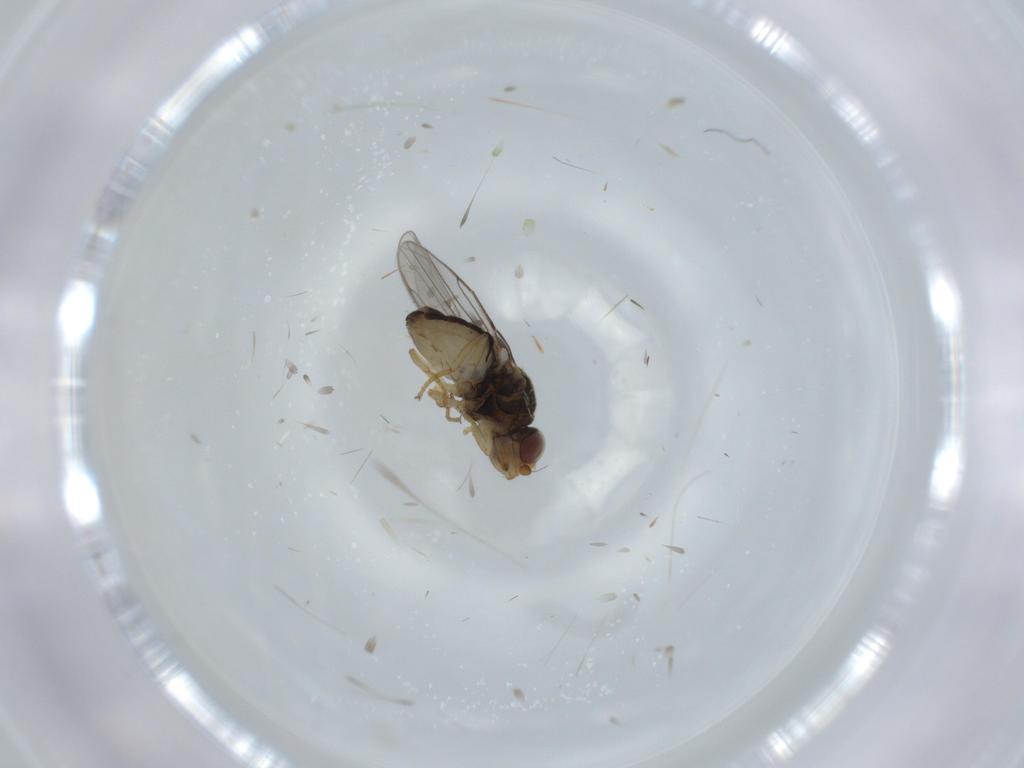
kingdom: Animalia
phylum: Arthropoda
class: Insecta
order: Diptera
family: Chloropidae
